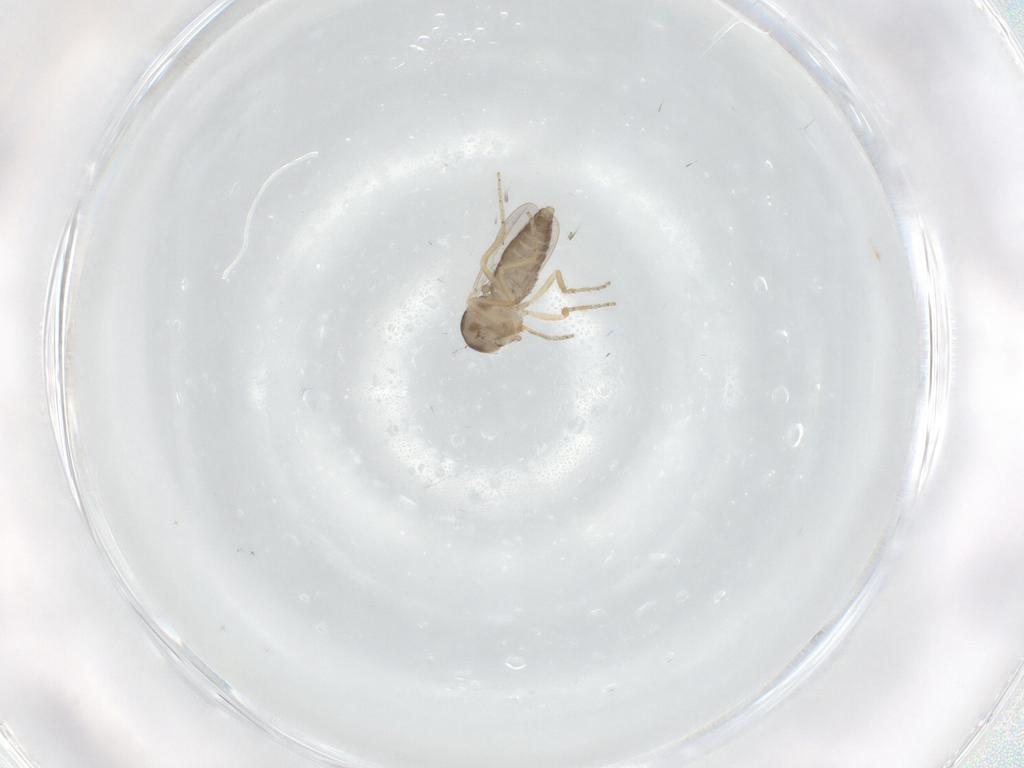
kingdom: Animalia
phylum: Arthropoda
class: Insecta
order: Diptera
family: Ceratopogonidae
